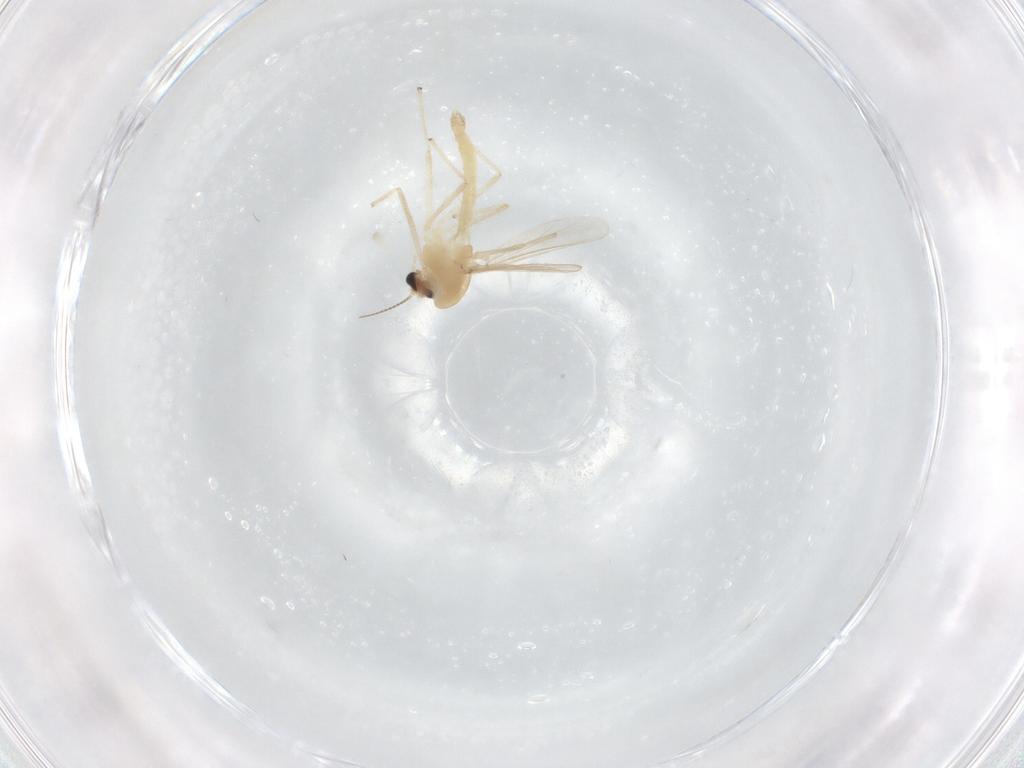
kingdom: Animalia
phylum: Arthropoda
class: Insecta
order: Diptera
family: Chironomidae
